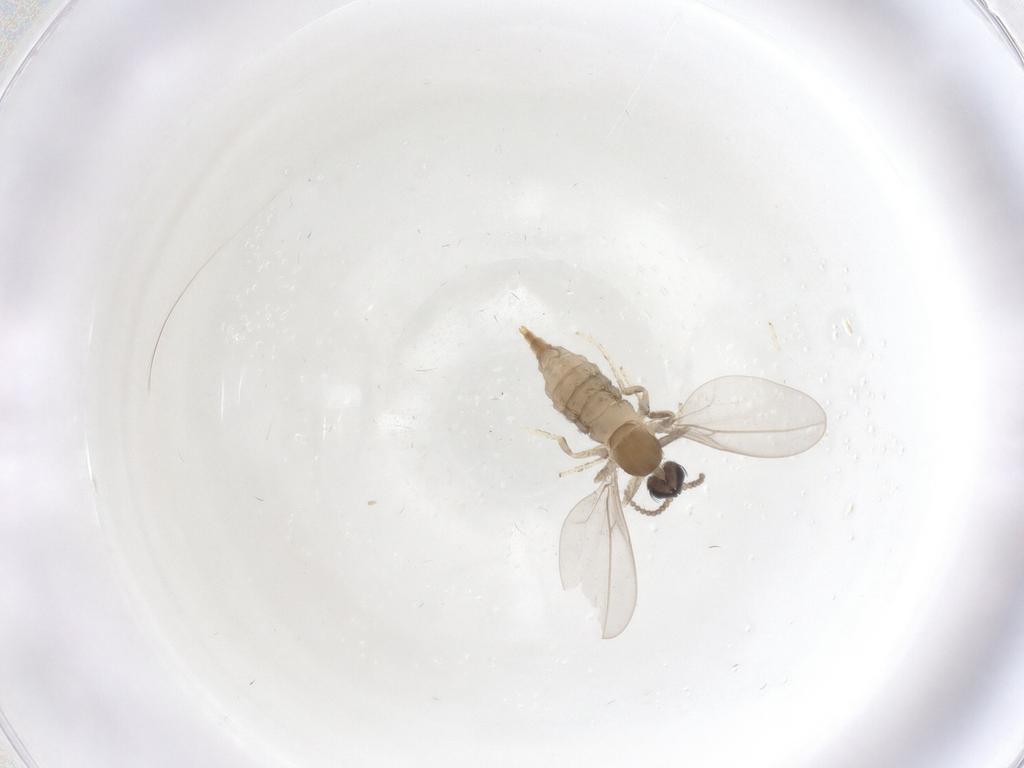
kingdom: Animalia
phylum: Arthropoda
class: Insecta
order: Diptera
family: Cecidomyiidae
